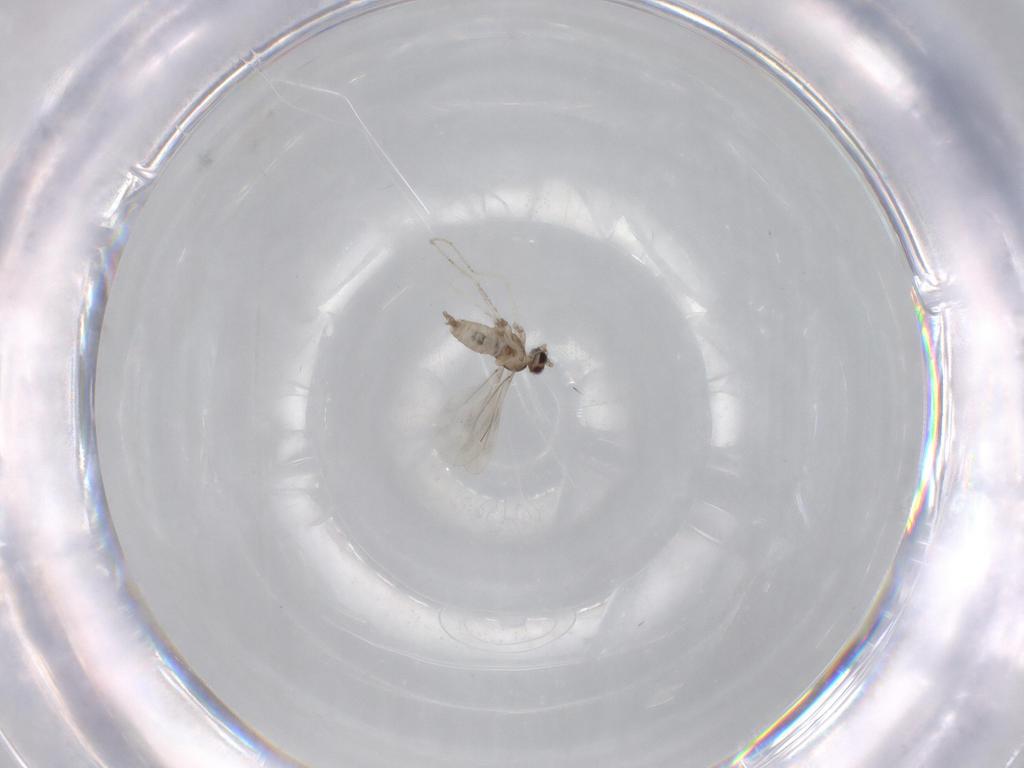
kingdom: Animalia
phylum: Arthropoda
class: Insecta
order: Diptera
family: Cecidomyiidae
